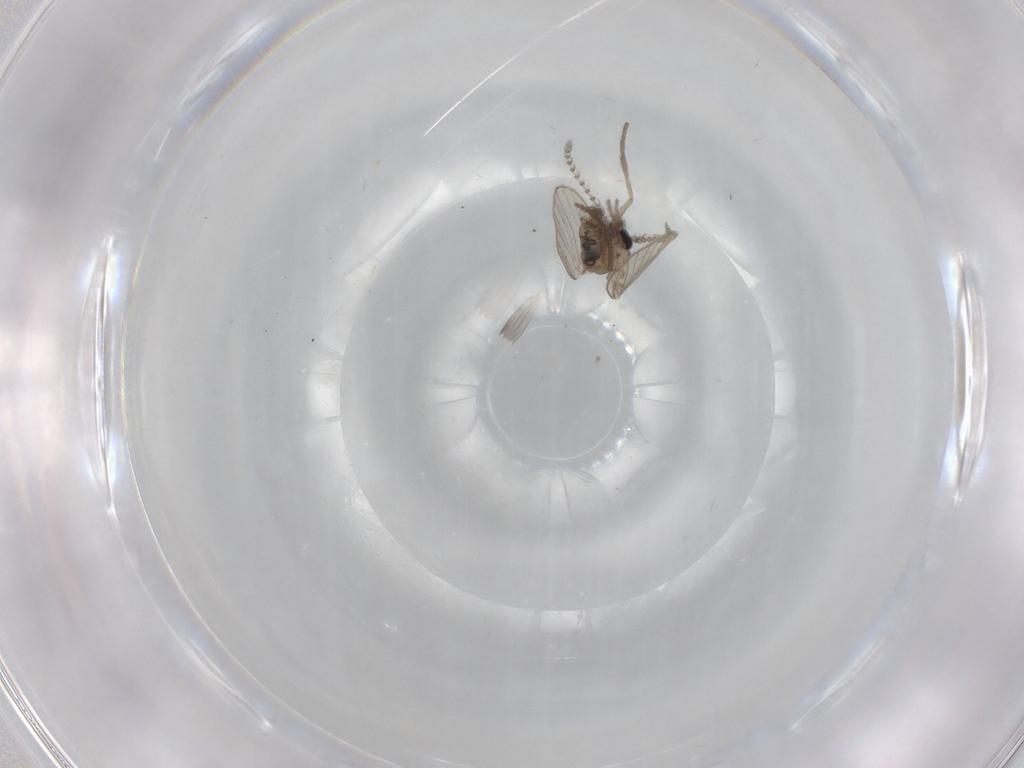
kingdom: Animalia
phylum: Arthropoda
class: Insecta
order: Diptera
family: Psychodidae
